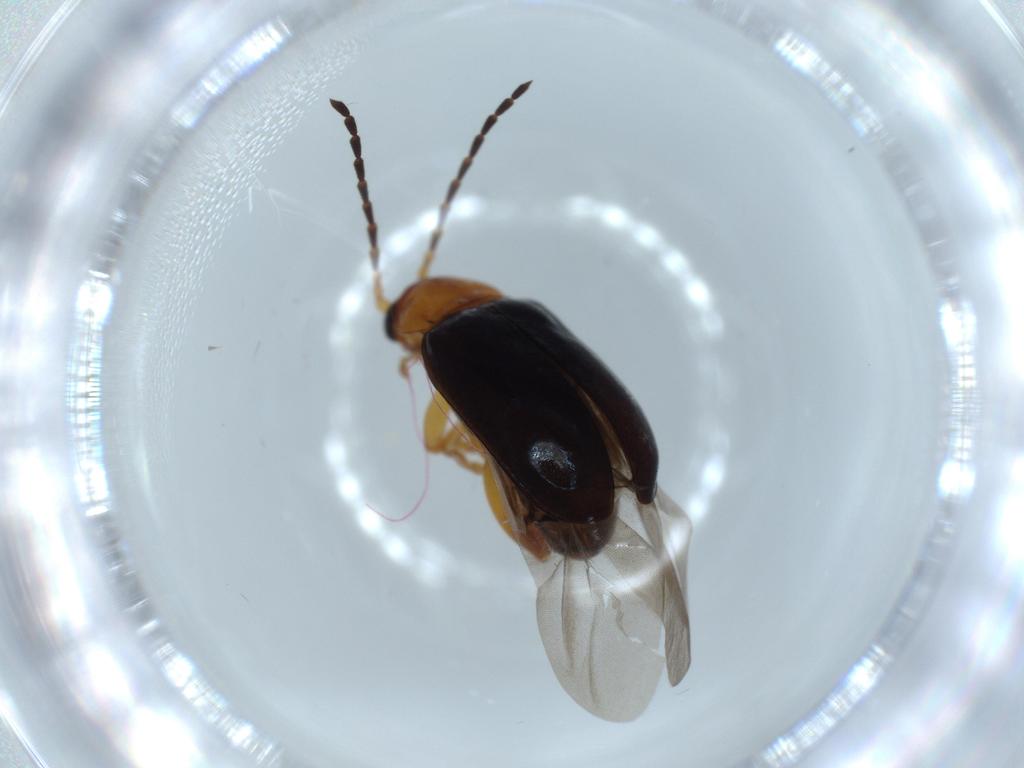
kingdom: Animalia
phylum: Arthropoda
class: Insecta
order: Coleoptera
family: Chrysomelidae
